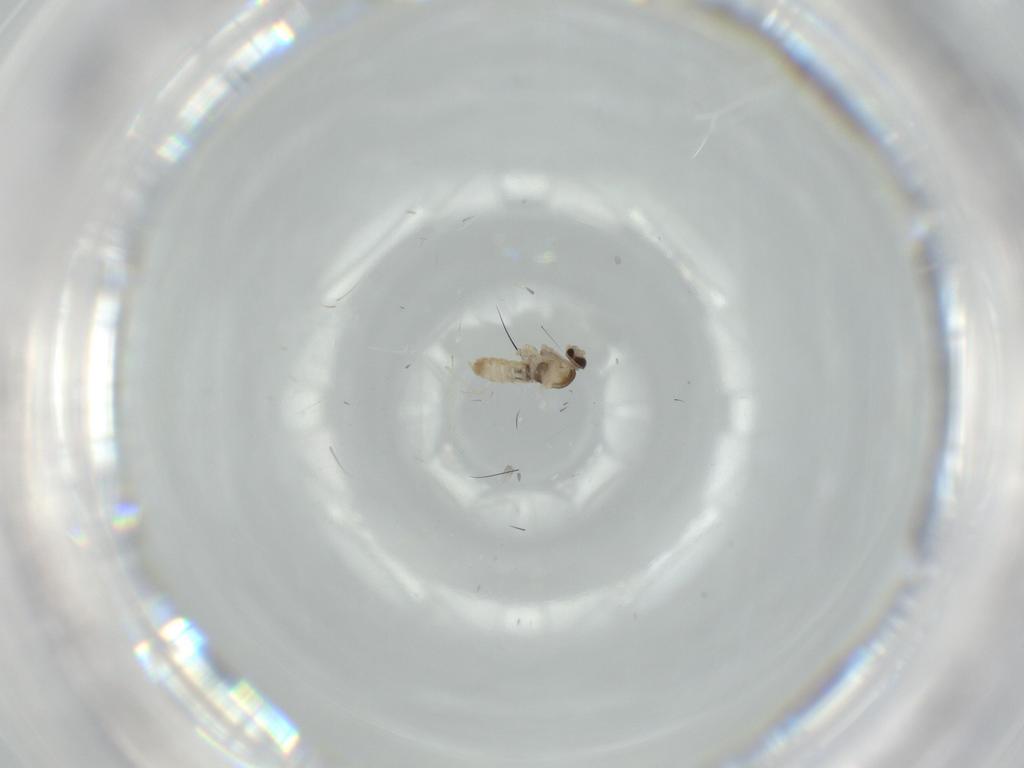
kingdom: Animalia
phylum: Arthropoda
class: Insecta
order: Diptera
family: Cecidomyiidae
